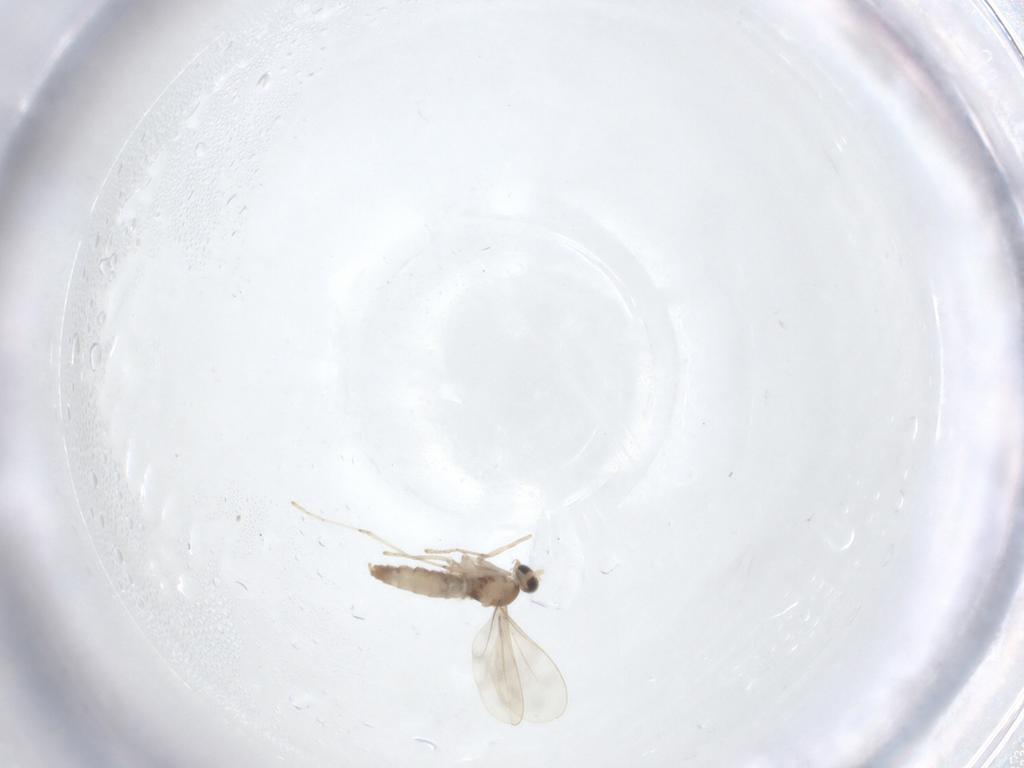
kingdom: Animalia
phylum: Arthropoda
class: Insecta
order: Diptera
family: Cecidomyiidae
